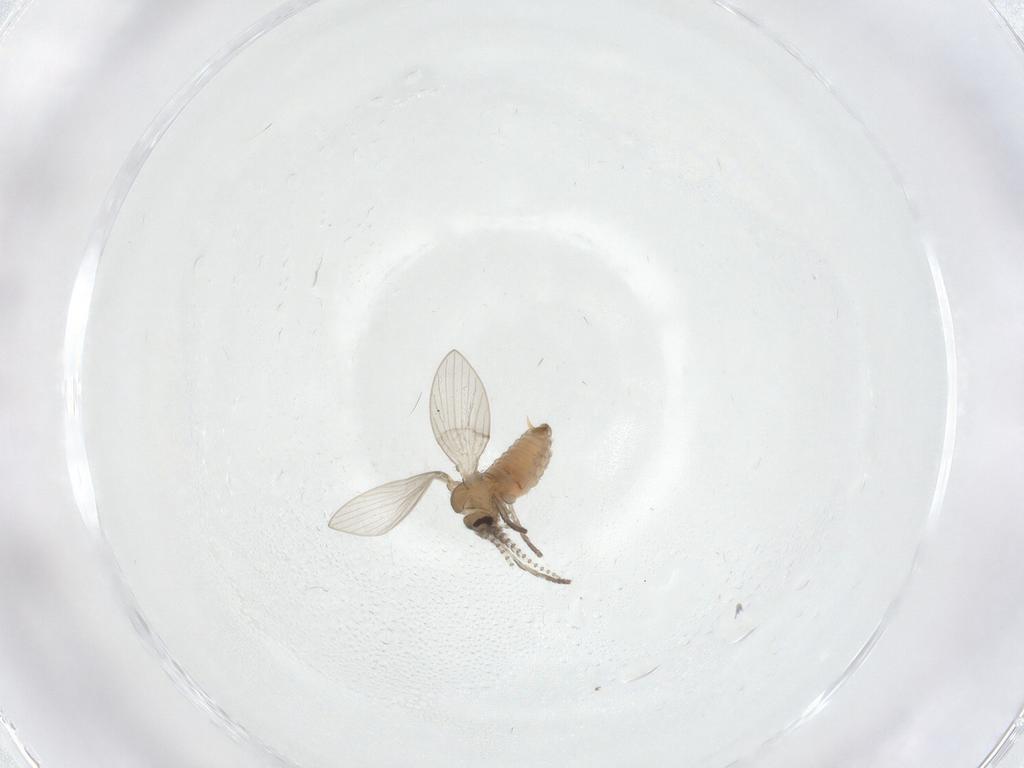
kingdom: Animalia
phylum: Arthropoda
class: Insecta
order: Diptera
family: Psychodidae
